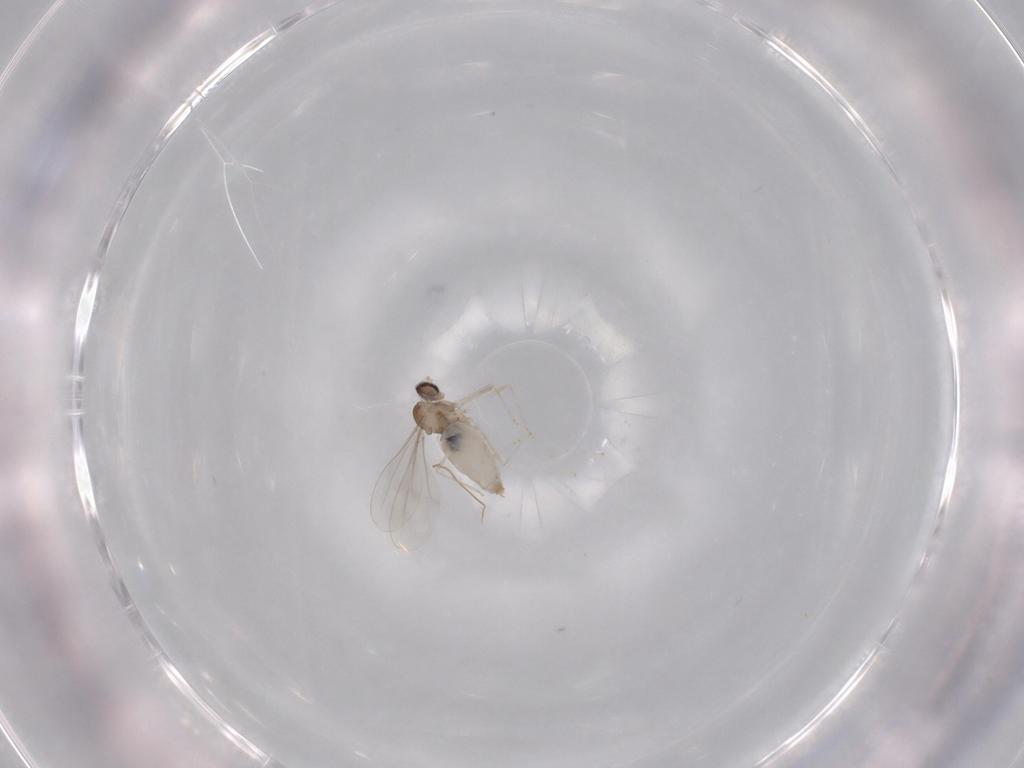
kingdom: Animalia
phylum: Arthropoda
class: Insecta
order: Diptera
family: Cecidomyiidae
